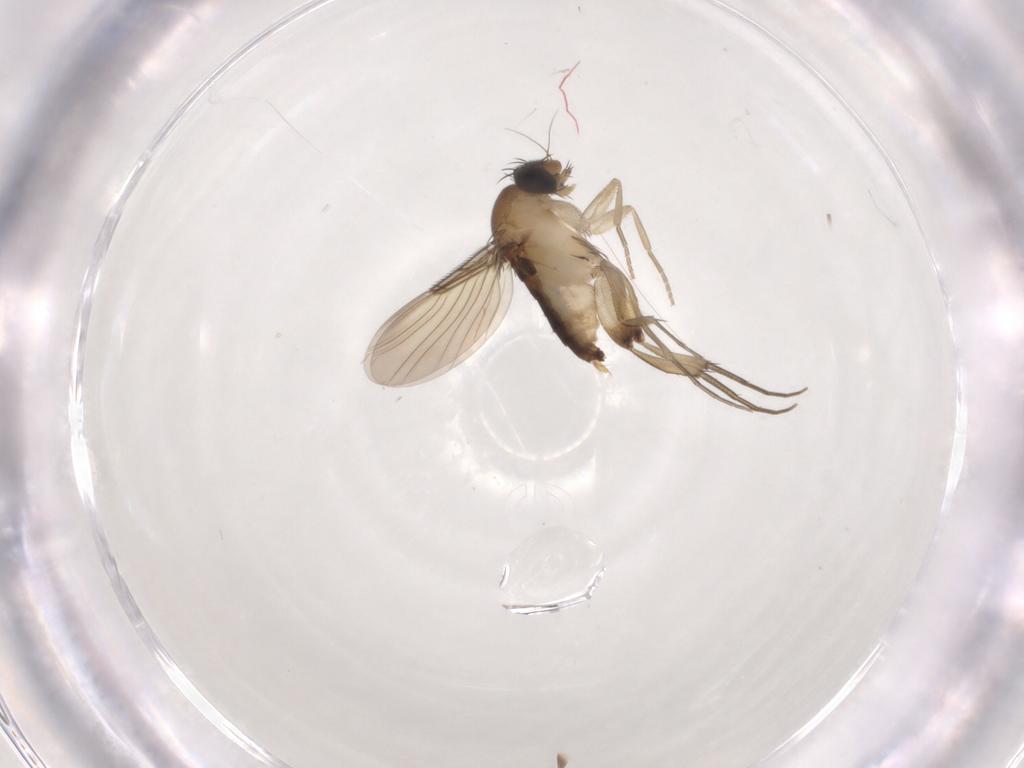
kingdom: Animalia
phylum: Arthropoda
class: Insecta
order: Diptera
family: Phoridae
